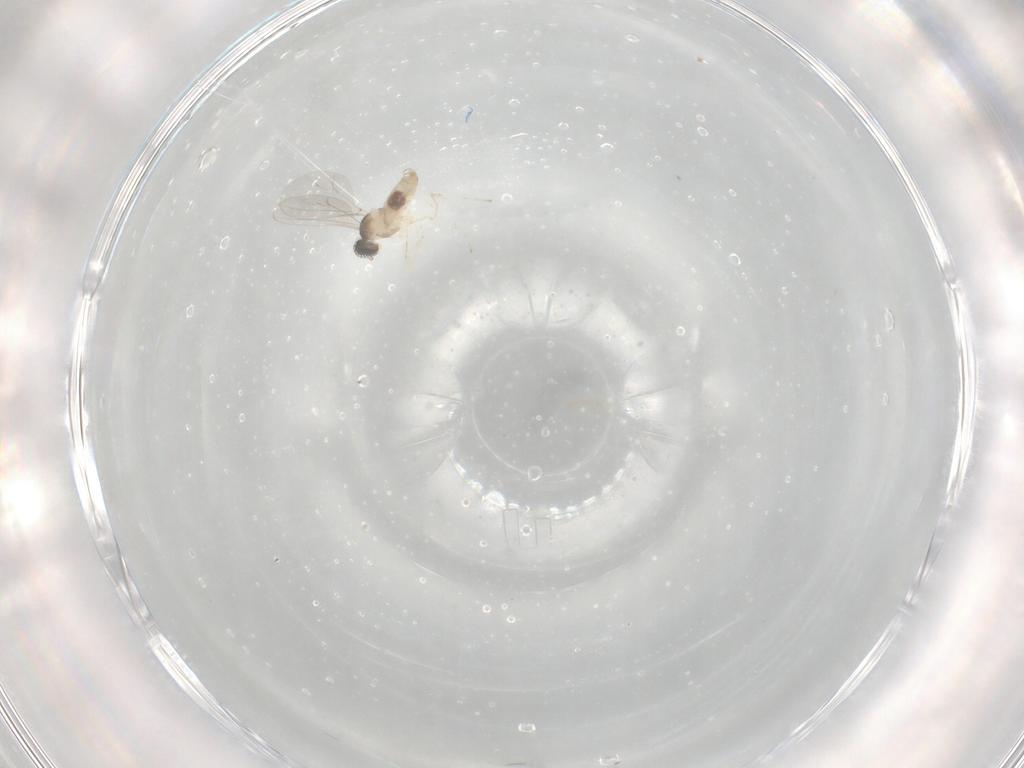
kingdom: Animalia
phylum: Arthropoda
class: Insecta
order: Diptera
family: Cecidomyiidae
